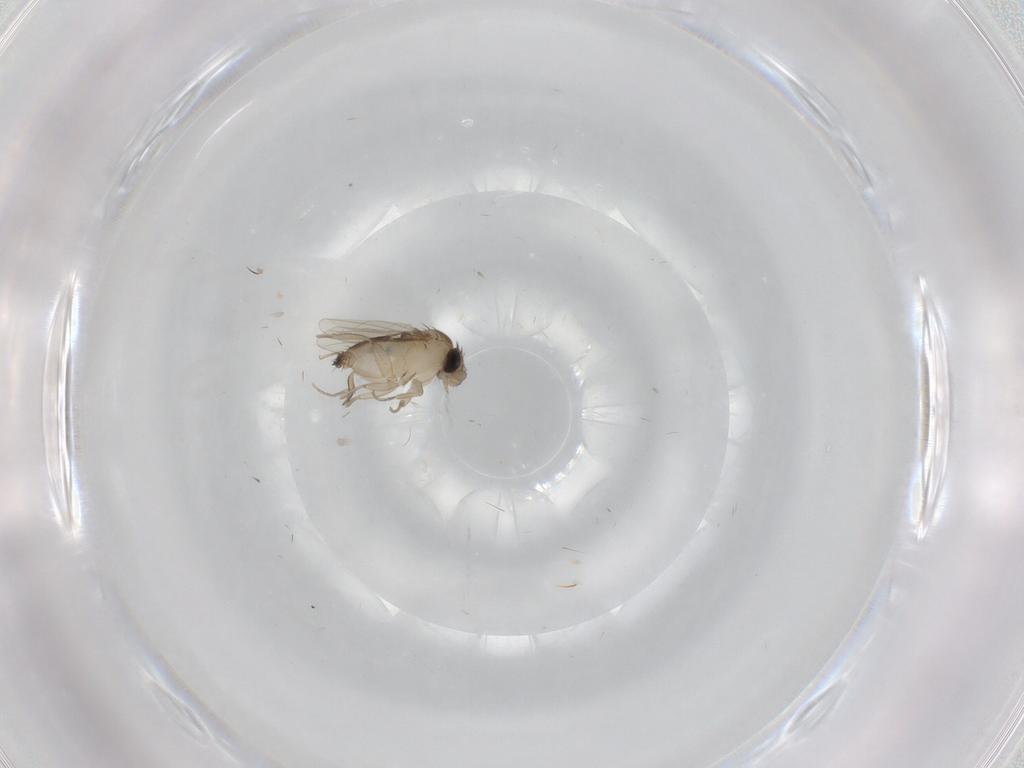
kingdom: Animalia
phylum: Arthropoda
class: Insecta
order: Diptera
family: Phoridae
